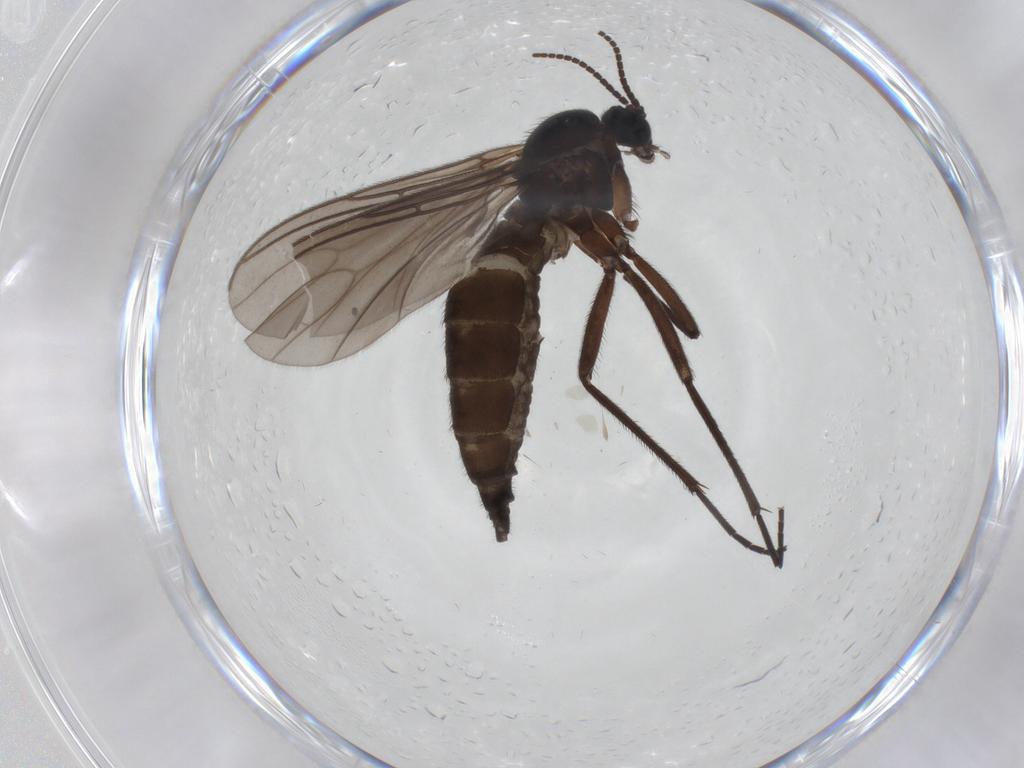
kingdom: Animalia
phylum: Arthropoda
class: Insecta
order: Diptera
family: Sciaridae
